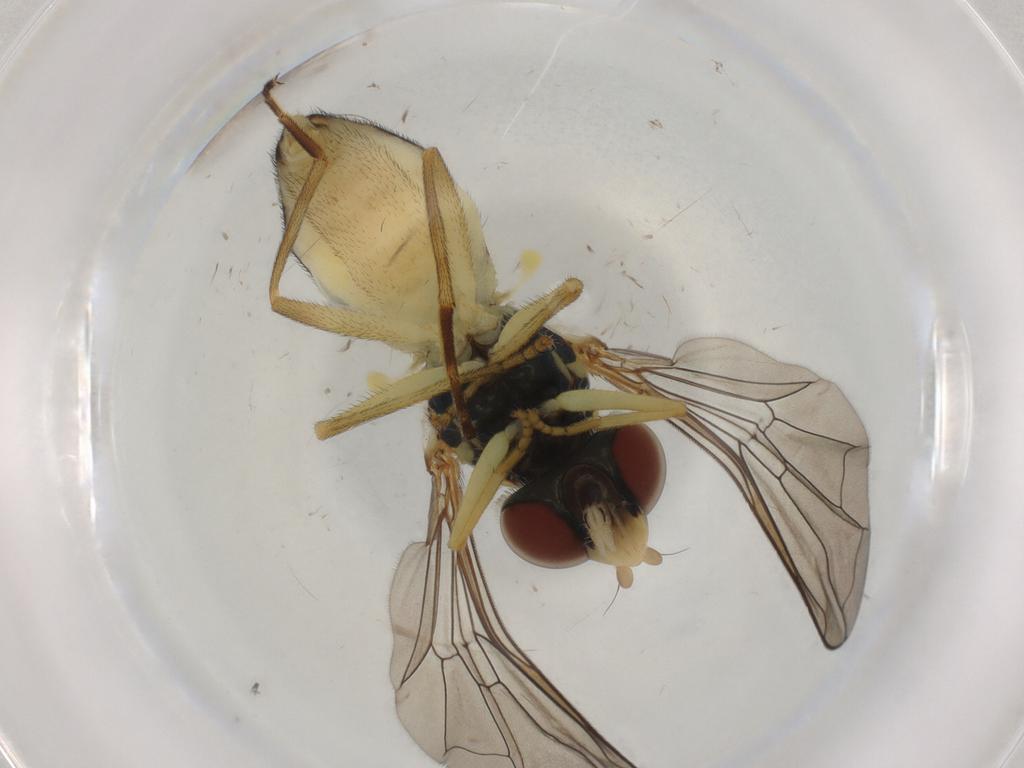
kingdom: Animalia
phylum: Arthropoda
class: Insecta
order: Diptera
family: Syrphidae
